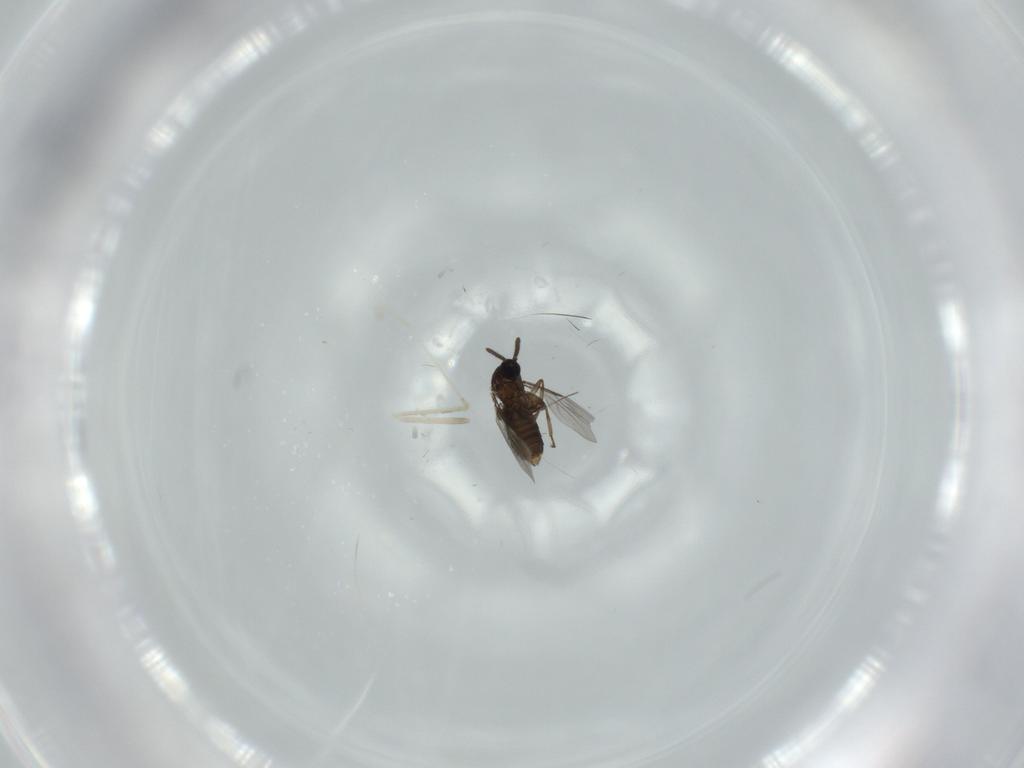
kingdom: Animalia
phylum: Arthropoda
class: Insecta
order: Diptera
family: Scatopsidae
